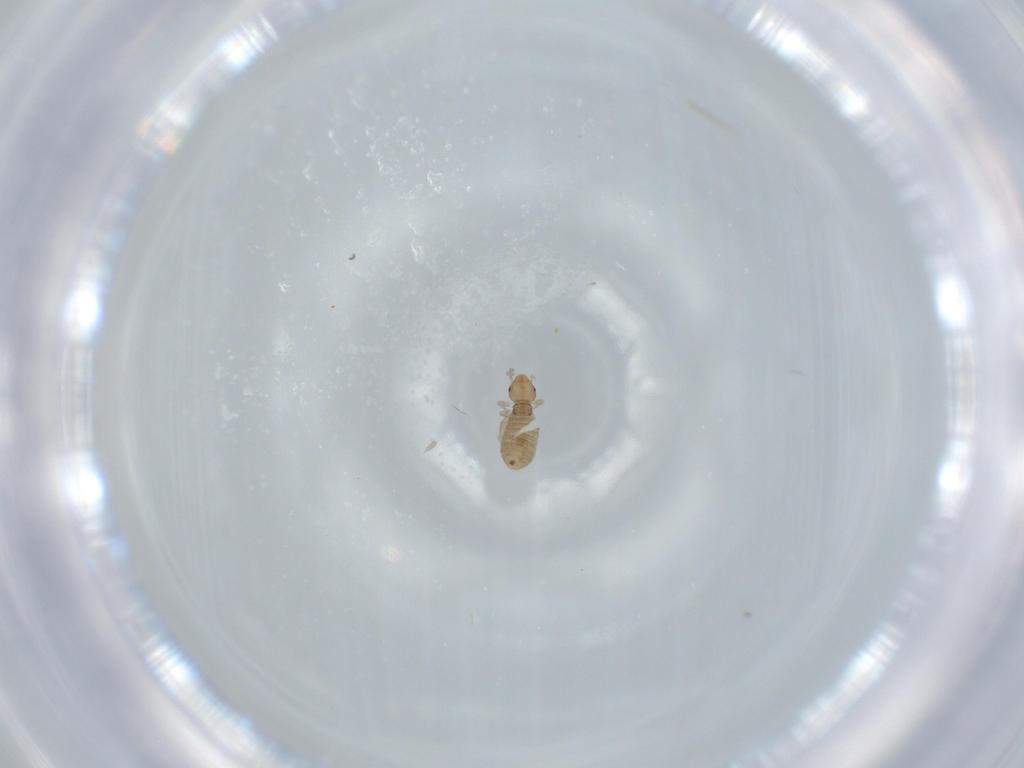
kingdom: Animalia
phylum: Arthropoda
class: Insecta
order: Psocodea
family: Liposcelididae
